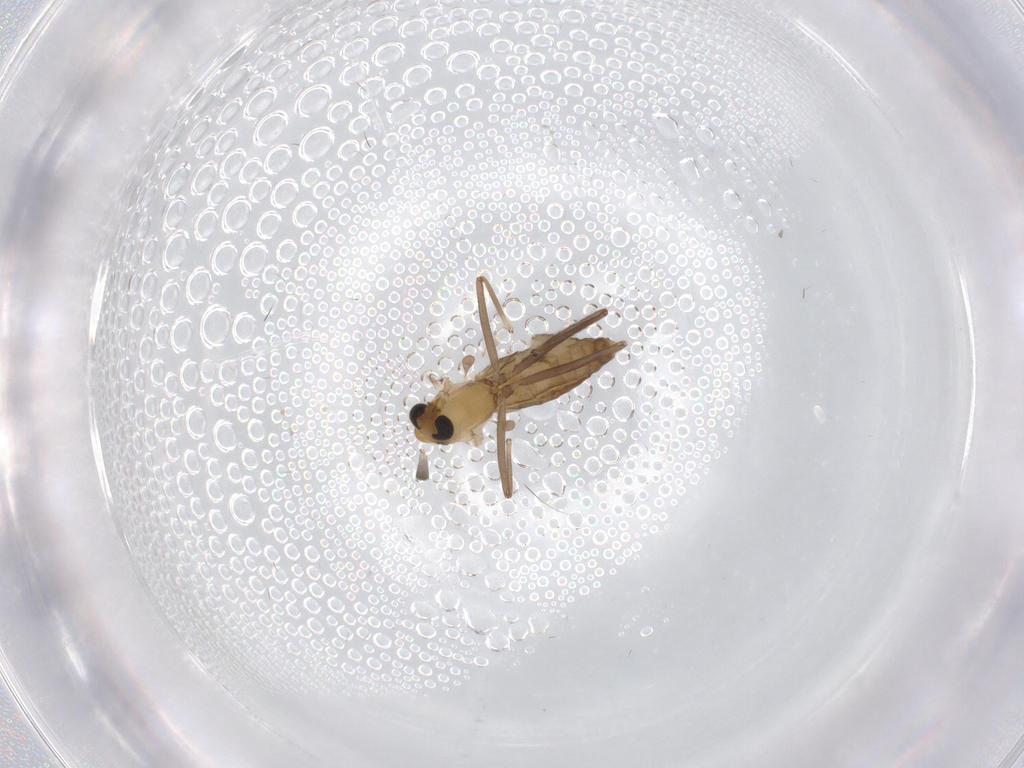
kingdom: Animalia
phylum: Arthropoda
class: Insecta
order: Diptera
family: Chironomidae
